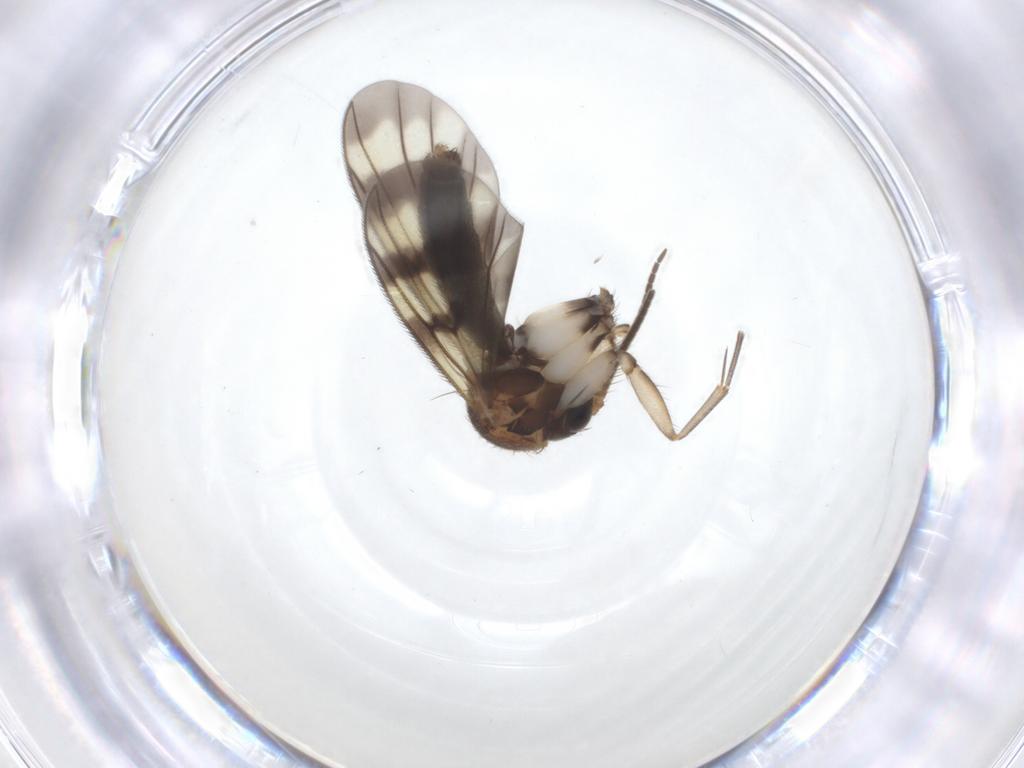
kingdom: Animalia
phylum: Arthropoda
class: Insecta
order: Diptera
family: Mycetophilidae
